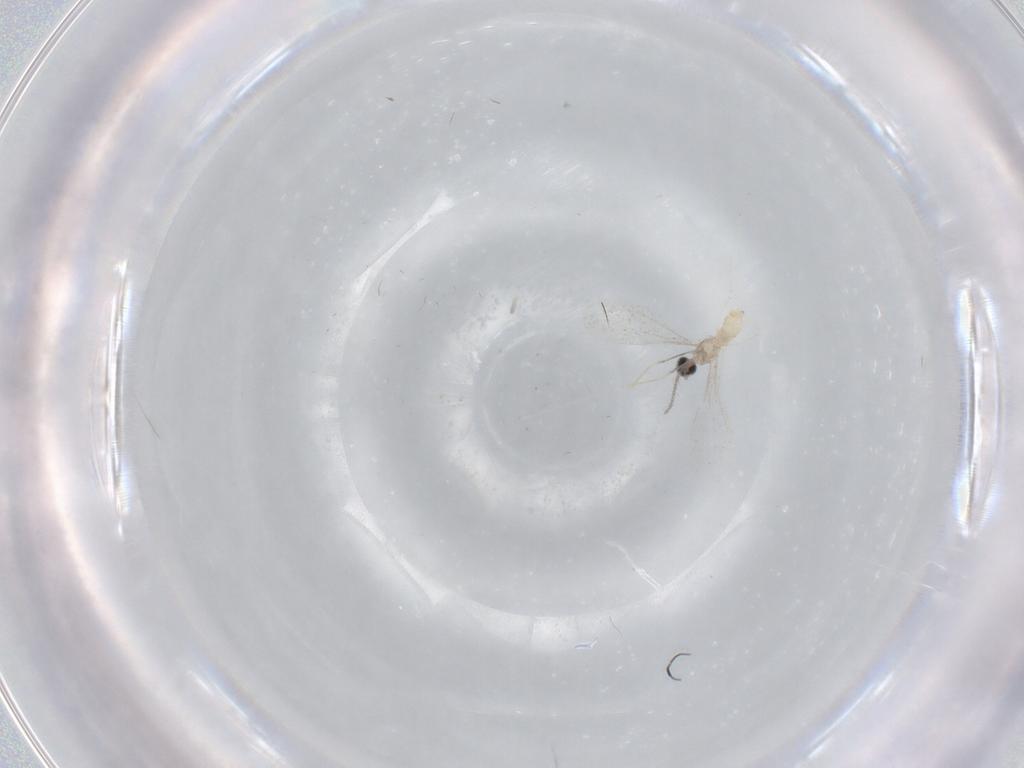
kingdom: Animalia
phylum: Arthropoda
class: Insecta
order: Diptera
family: Cecidomyiidae
